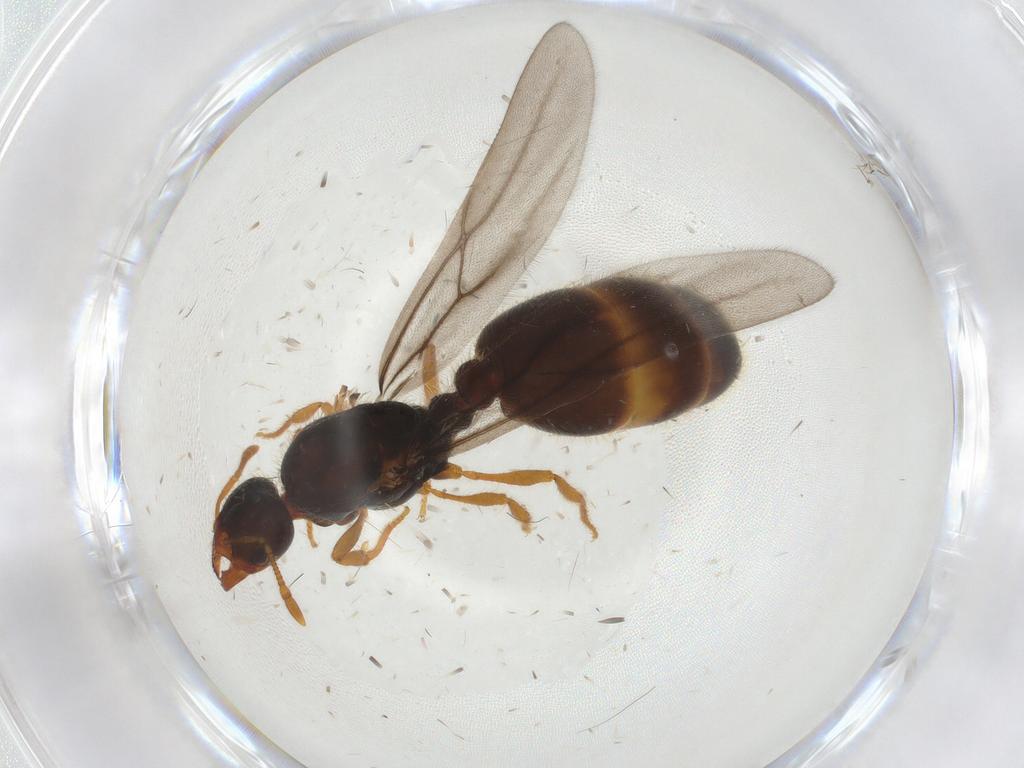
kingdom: Animalia
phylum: Arthropoda
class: Insecta
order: Hymenoptera
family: Formicidae
